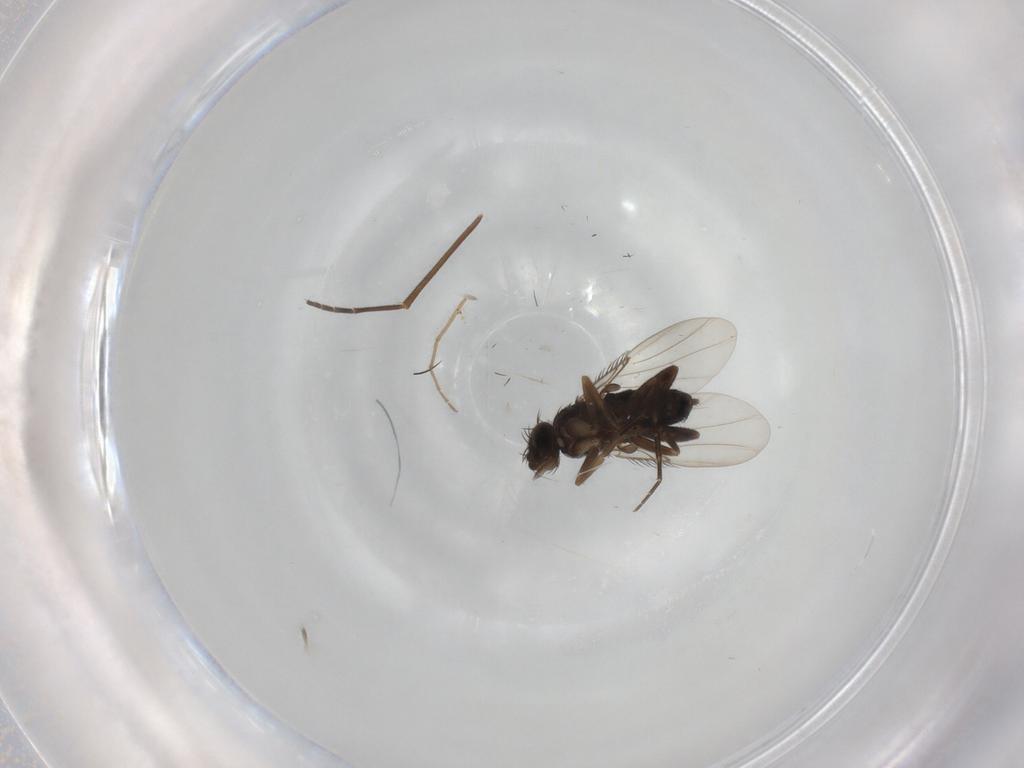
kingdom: Animalia
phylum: Arthropoda
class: Insecta
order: Diptera
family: Phoridae
